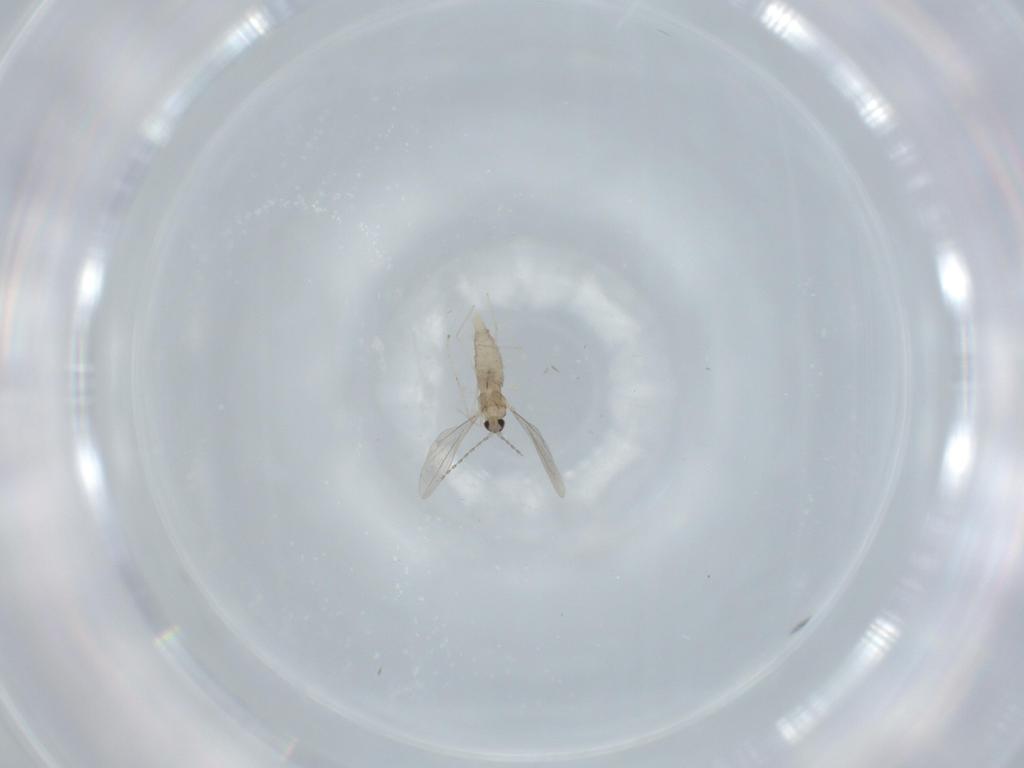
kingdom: Animalia
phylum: Arthropoda
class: Insecta
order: Diptera
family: Cecidomyiidae
